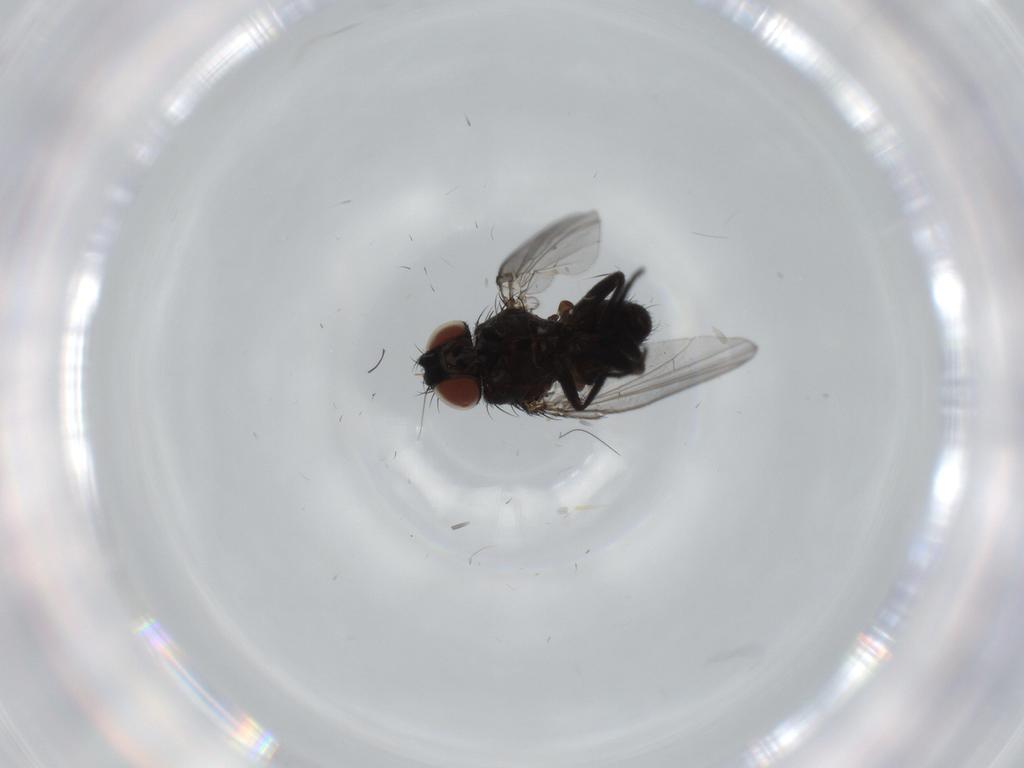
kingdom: Animalia
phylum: Arthropoda
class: Insecta
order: Diptera
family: Milichiidae
